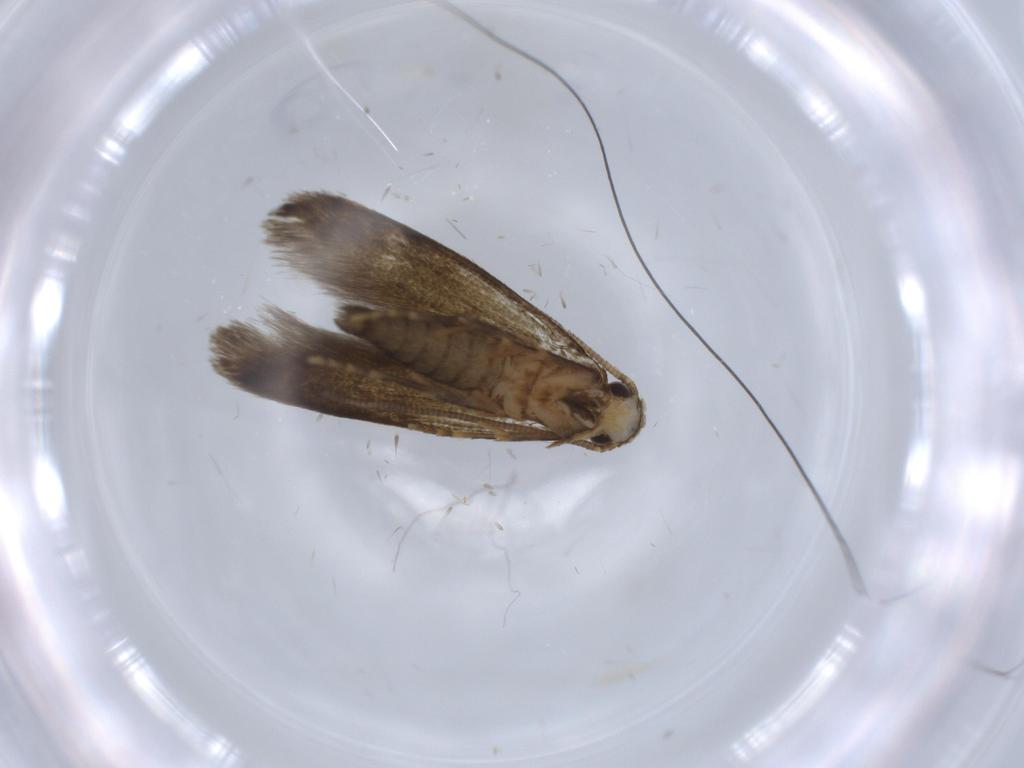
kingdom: Animalia
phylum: Arthropoda
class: Insecta
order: Lepidoptera
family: Tineidae
